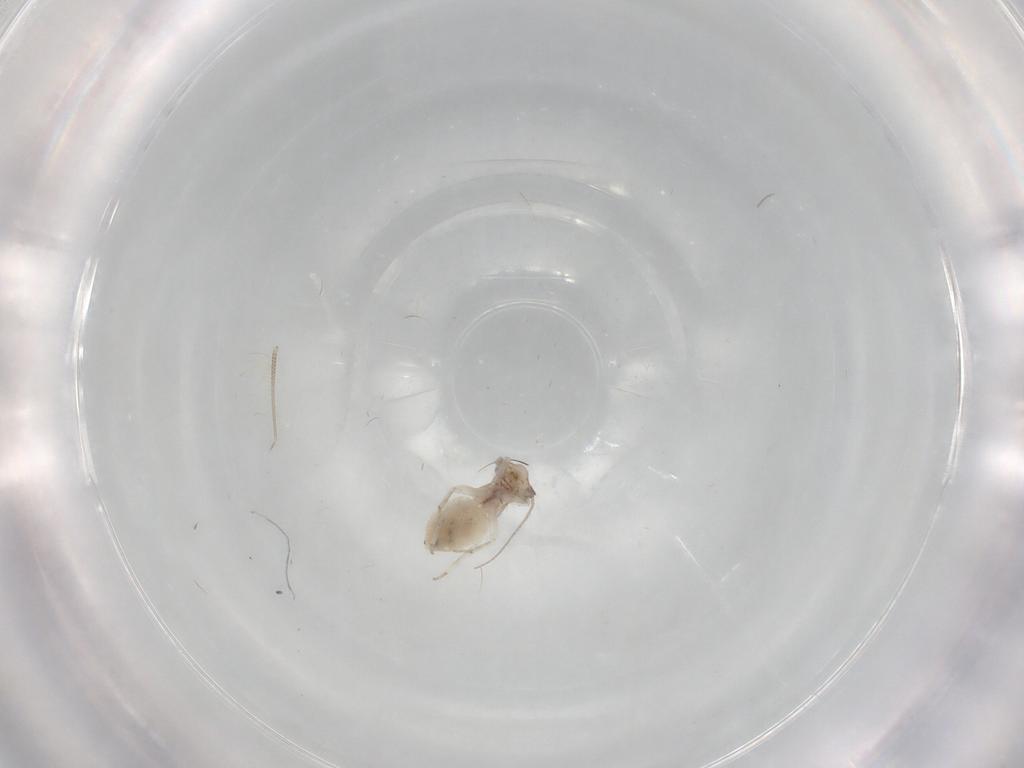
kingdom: Animalia
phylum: Arthropoda
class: Insecta
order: Psocodea
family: Lepidopsocidae
